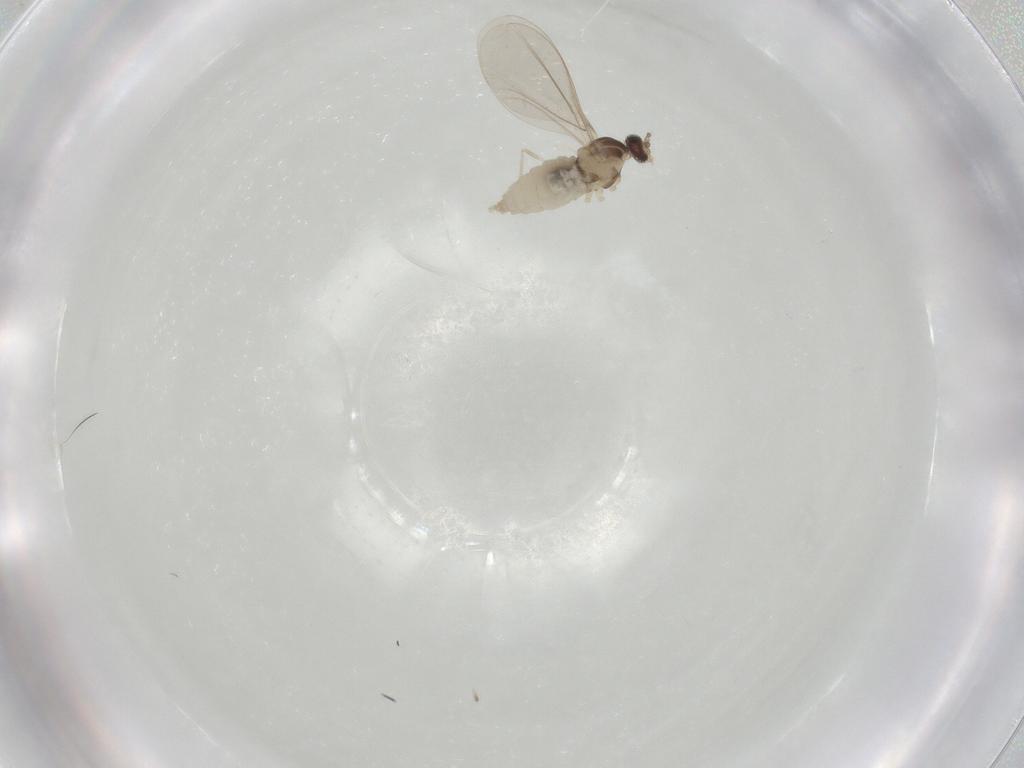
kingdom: Animalia
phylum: Arthropoda
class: Insecta
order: Diptera
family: Cecidomyiidae
